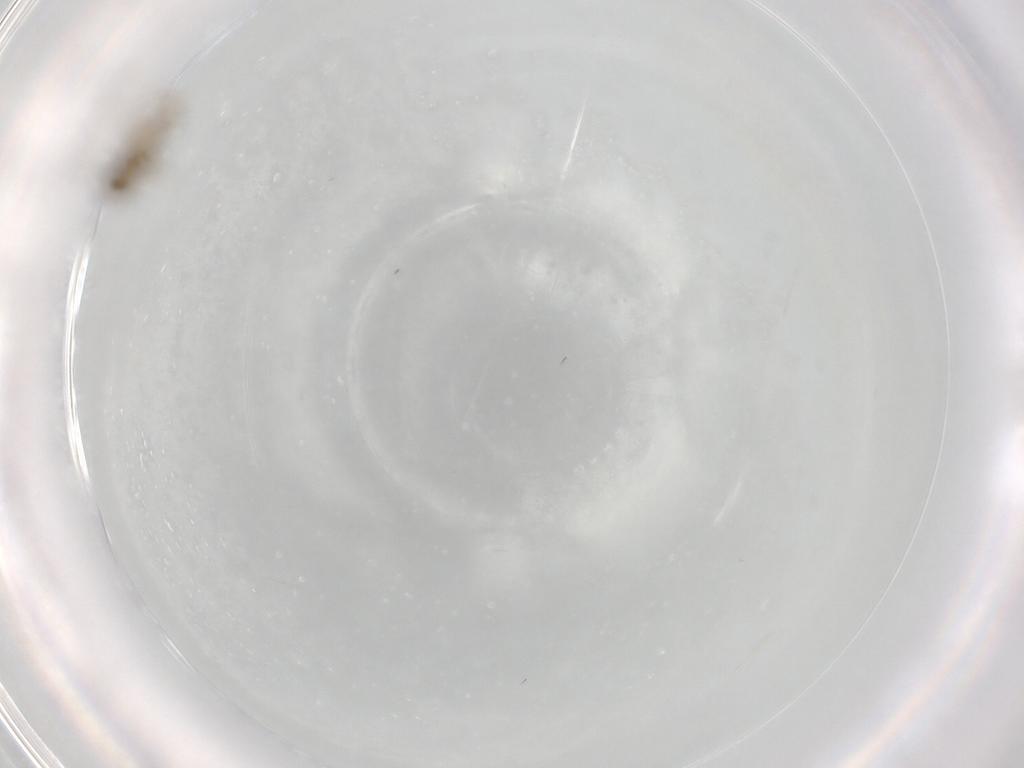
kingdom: Animalia
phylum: Arthropoda
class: Insecta
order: Diptera
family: Chironomidae
